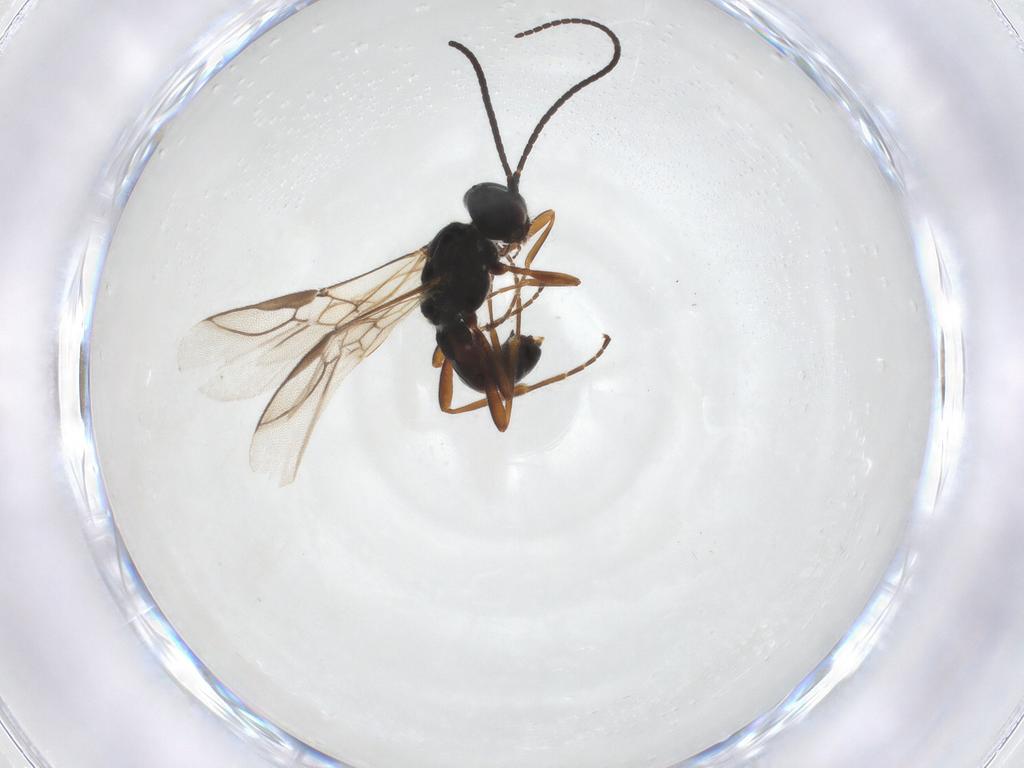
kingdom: Animalia
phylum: Arthropoda
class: Insecta
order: Hymenoptera
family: Braconidae
